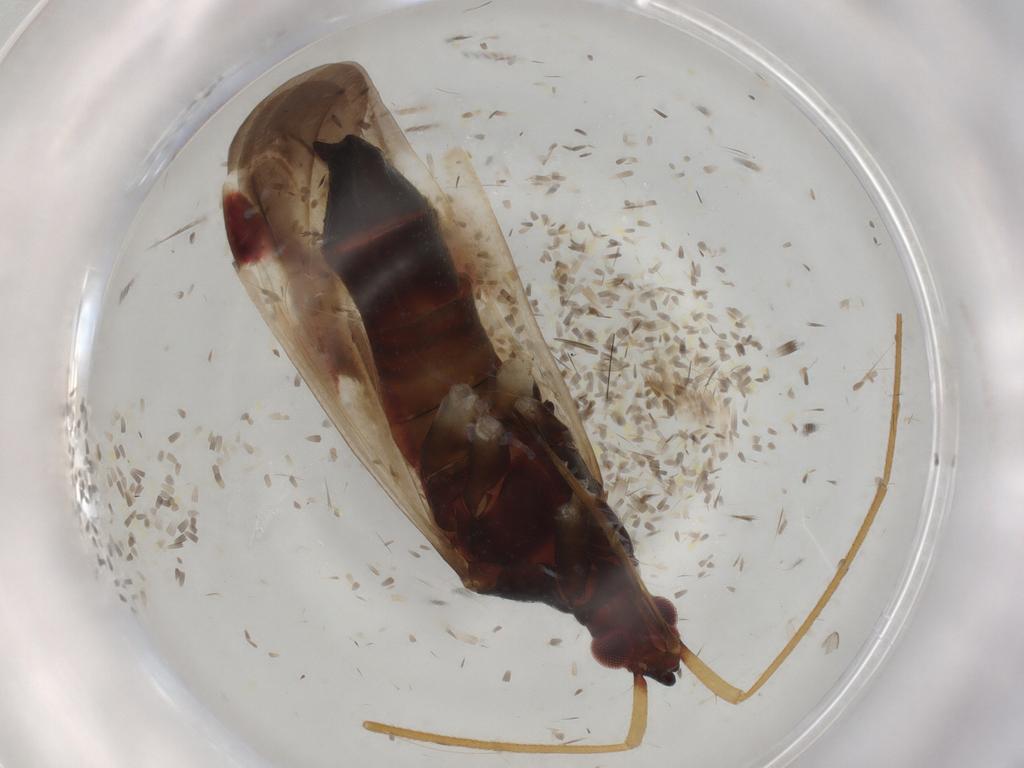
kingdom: Animalia
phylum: Arthropoda
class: Insecta
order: Hemiptera
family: Miridae
